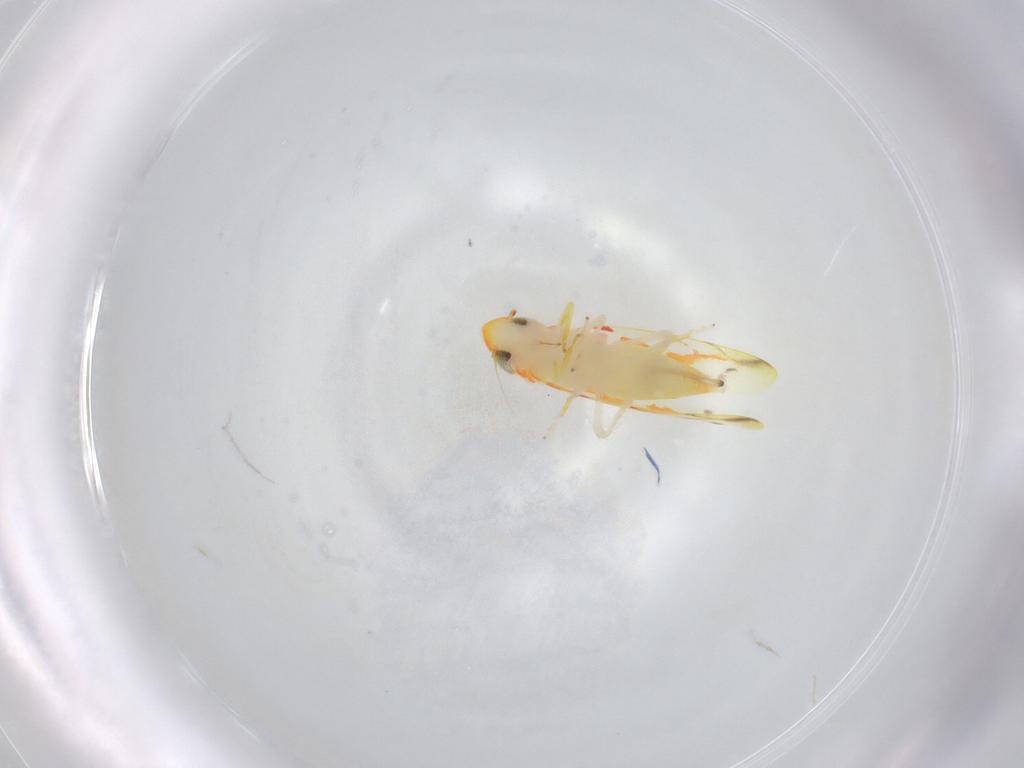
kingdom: Animalia
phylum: Arthropoda
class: Insecta
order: Hemiptera
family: Cicadellidae
